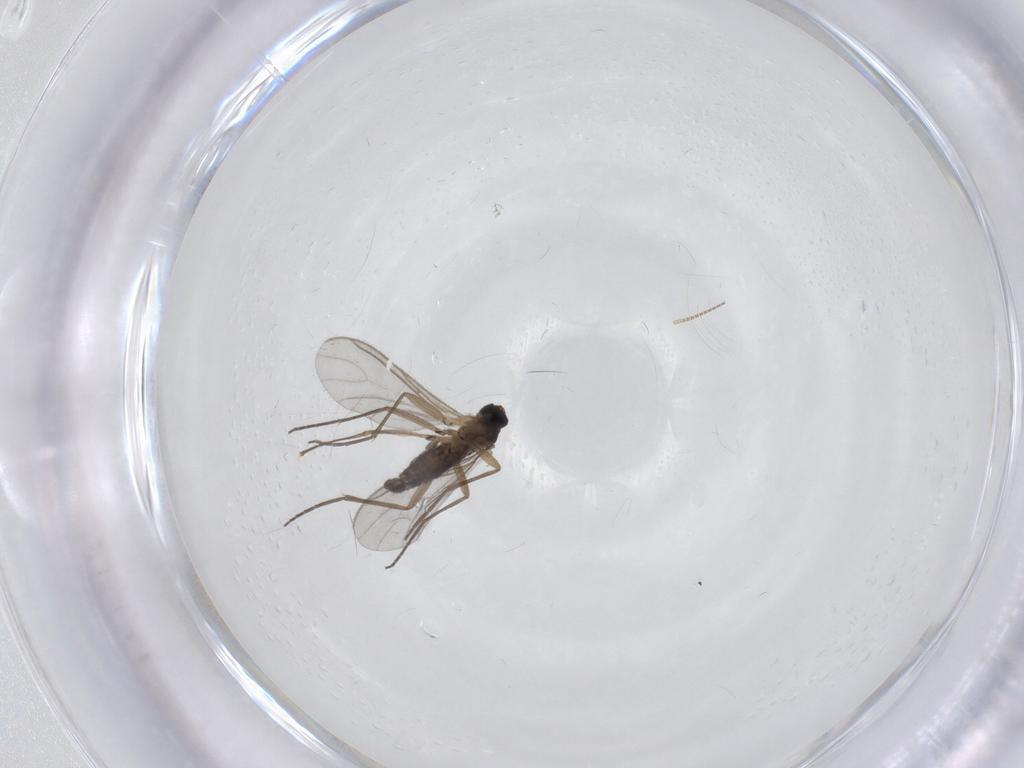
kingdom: Animalia
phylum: Arthropoda
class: Insecta
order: Diptera
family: Sciaridae
